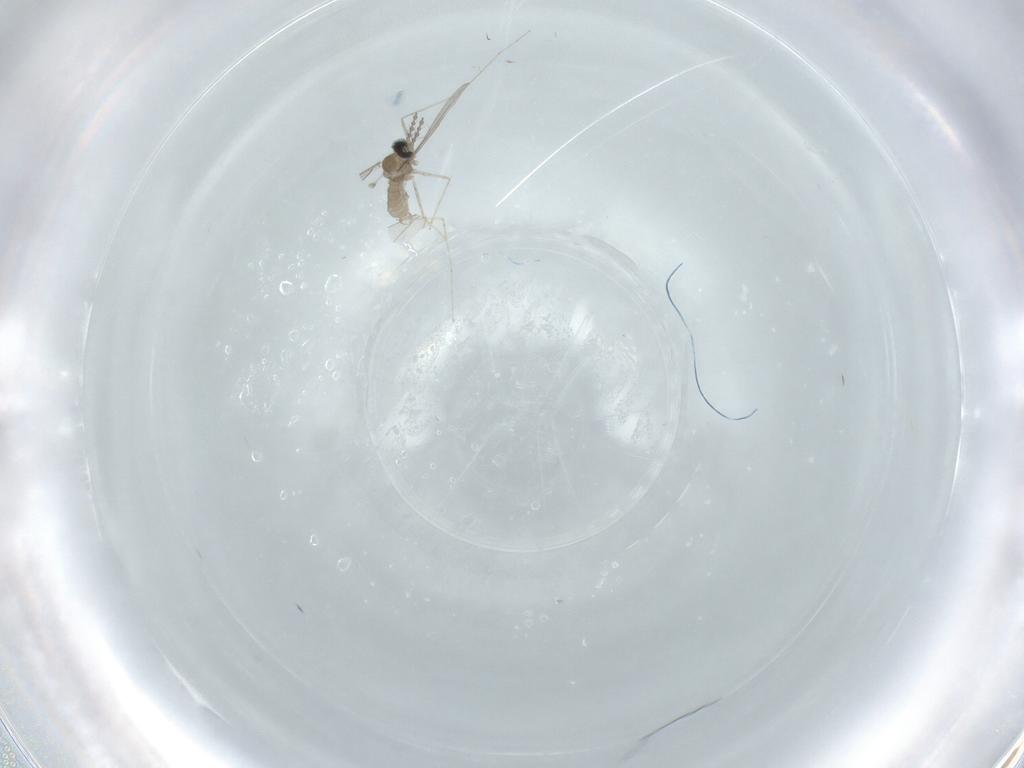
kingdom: Animalia
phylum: Arthropoda
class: Insecta
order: Diptera
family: Cecidomyiidae
